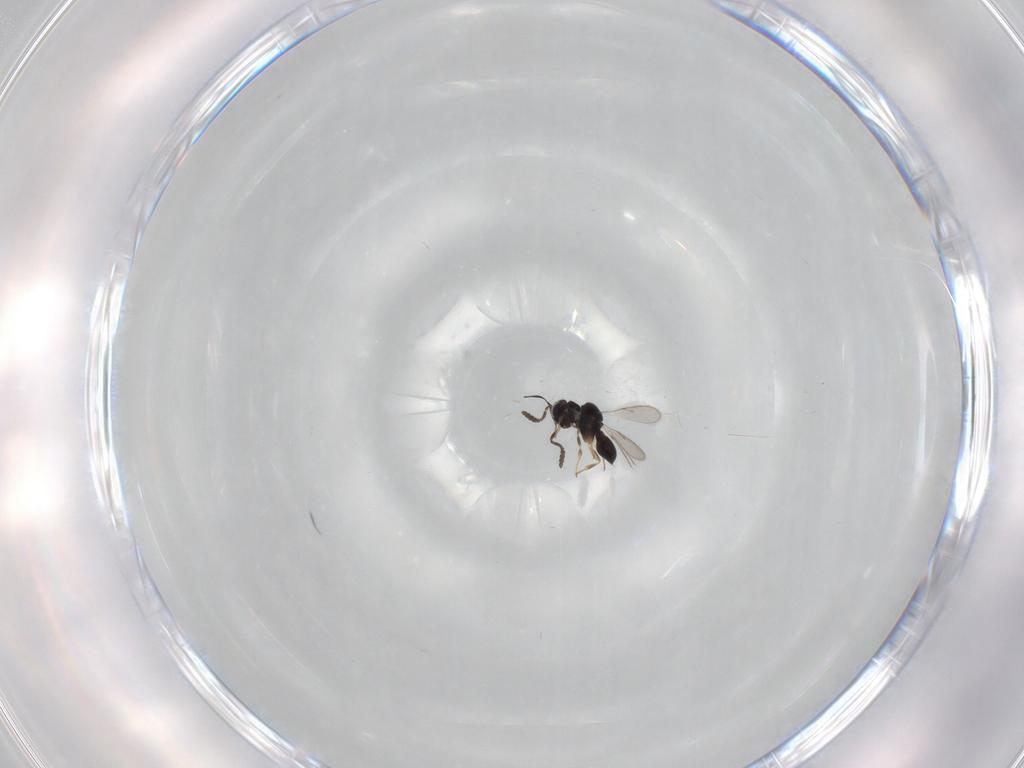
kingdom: Animalia
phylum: Arthropoda
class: Insecta
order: Hymenoptera
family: Scelionidae
